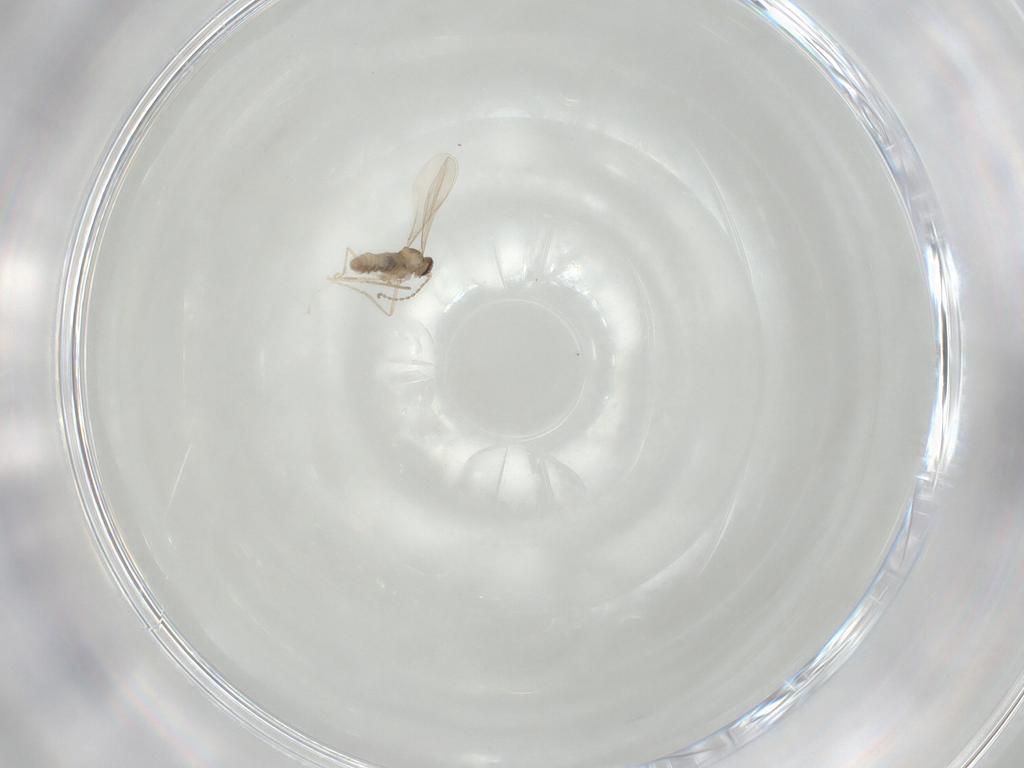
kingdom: Animalia
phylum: Arthropoda
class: Insecta
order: Diptera
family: Cecidomyiidae
